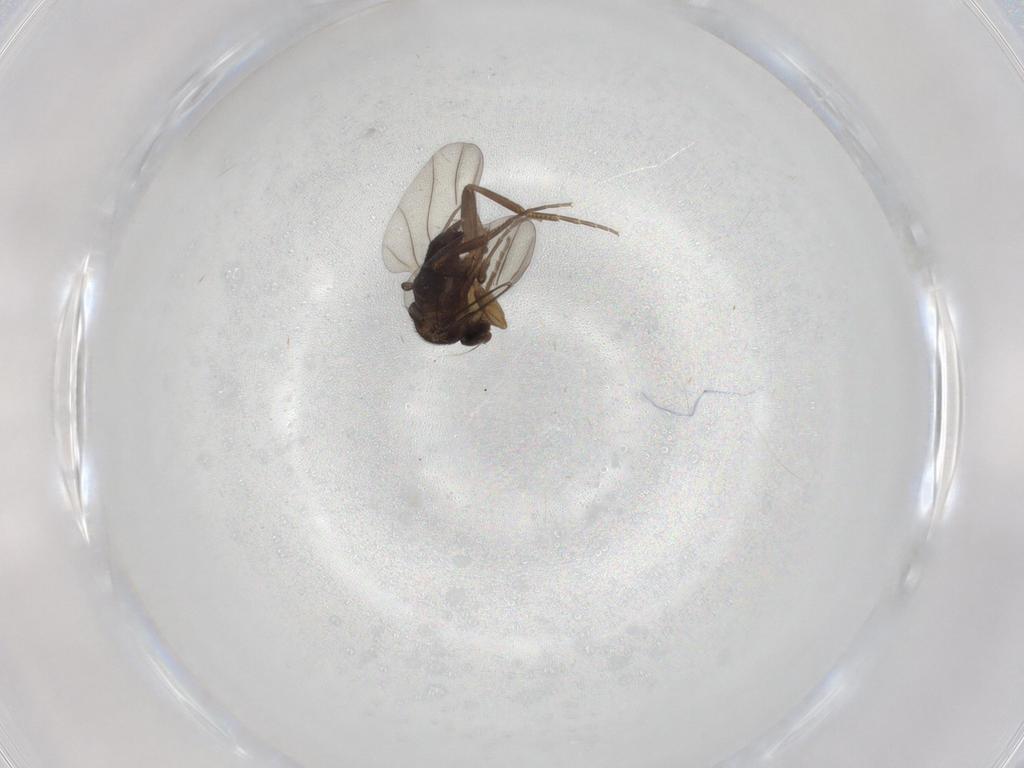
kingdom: Animalia
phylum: Arthropoda
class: Insecta
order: Diptera
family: Phoridae
